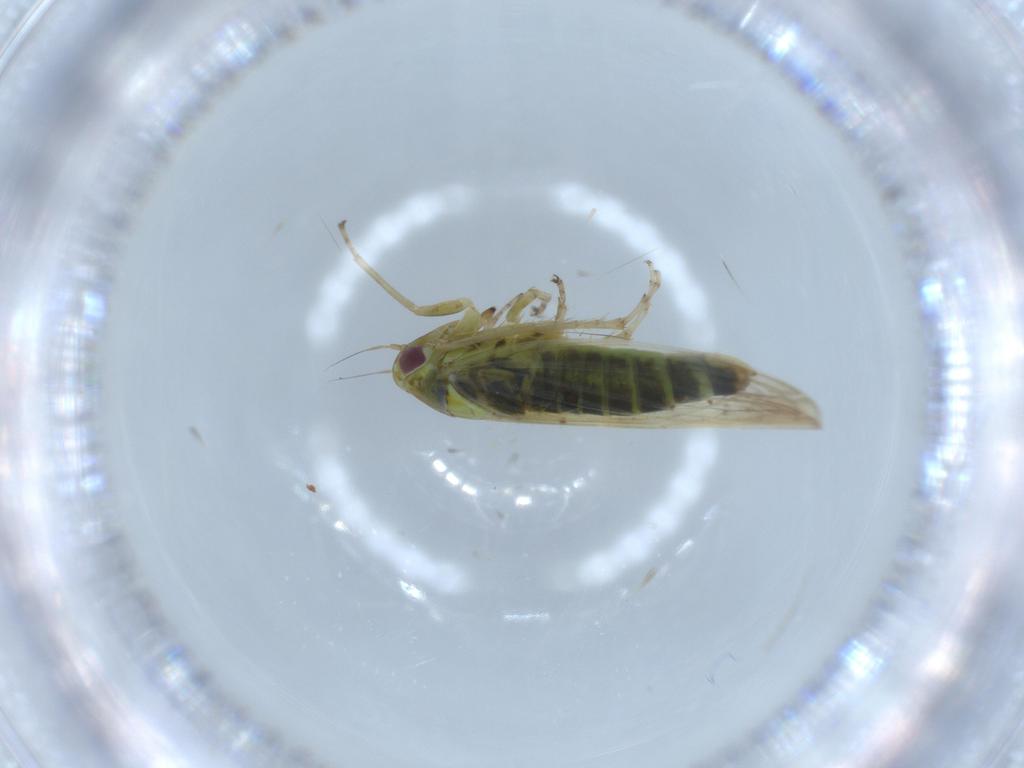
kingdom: Animalia
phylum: Arthropoda
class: Insecta
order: Hemiptera
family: Cicadellidae
